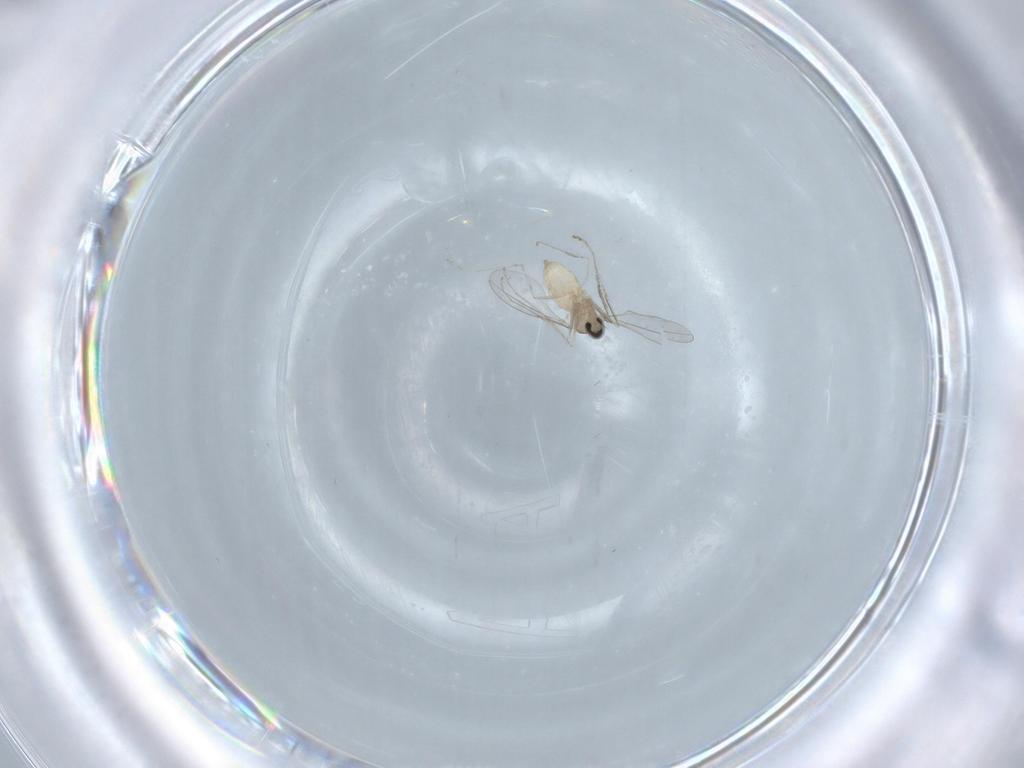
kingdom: Animalia
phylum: Arthropoda
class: Insecta
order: Diptera
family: Cecidomyiidae
